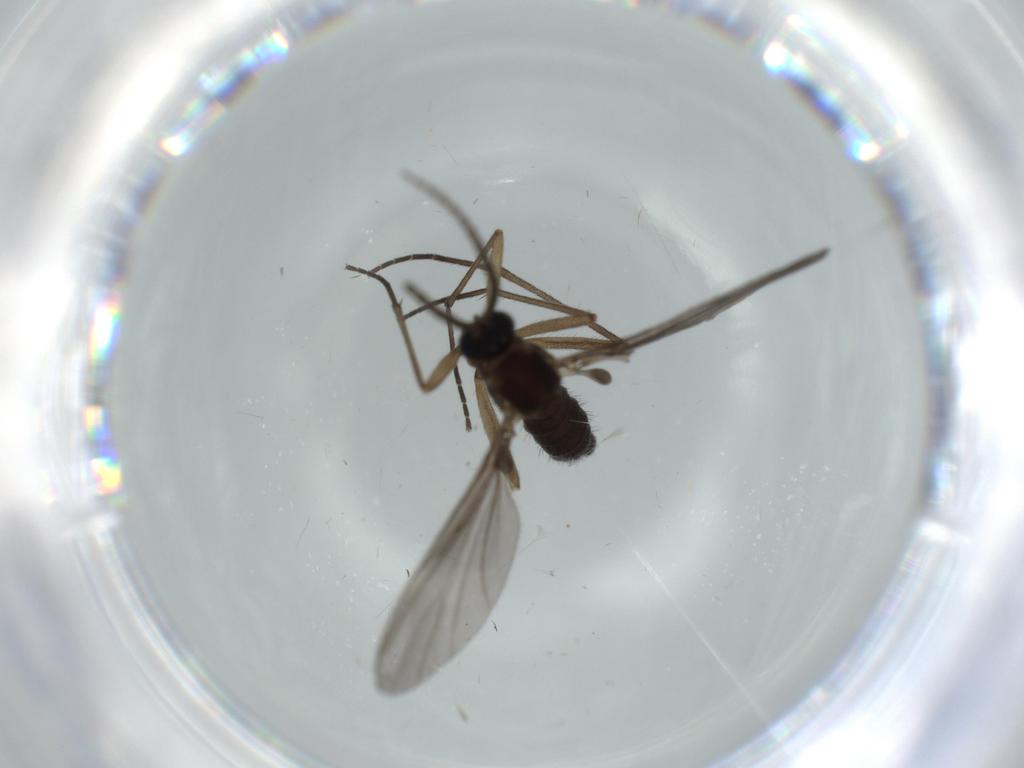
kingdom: Animalia
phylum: Arthropoda
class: Insecta
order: Diptera
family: Sciaridae
